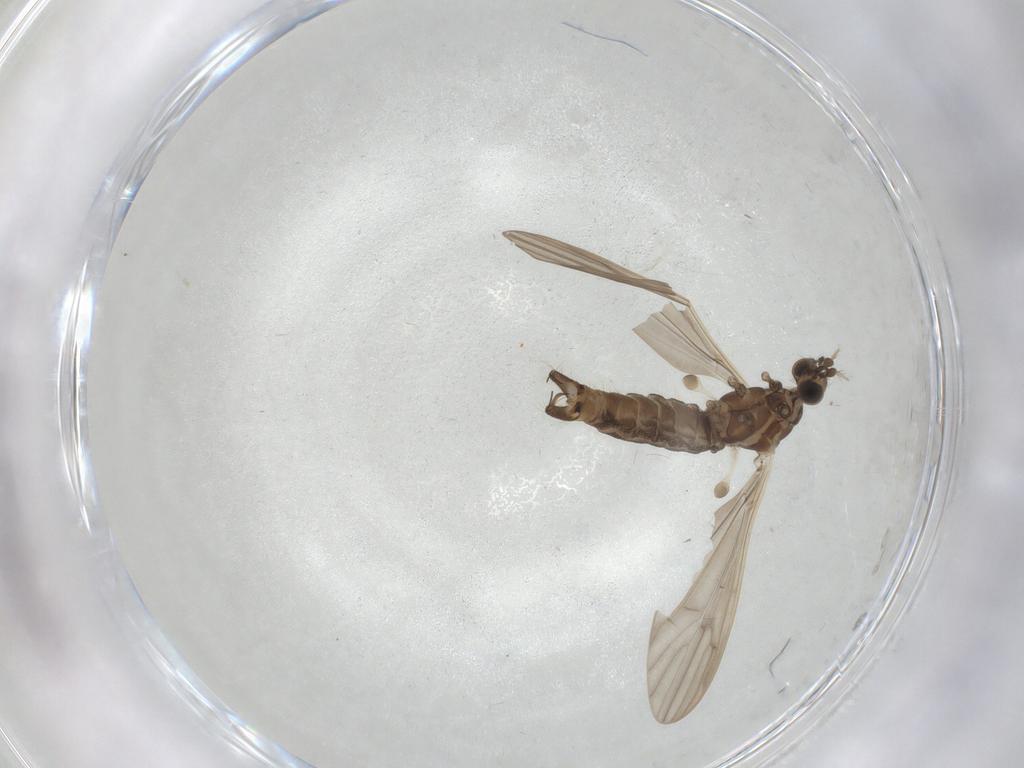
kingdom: Animalia
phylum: Arthropoda
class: Insecta
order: Diptera
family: Limoniidae
